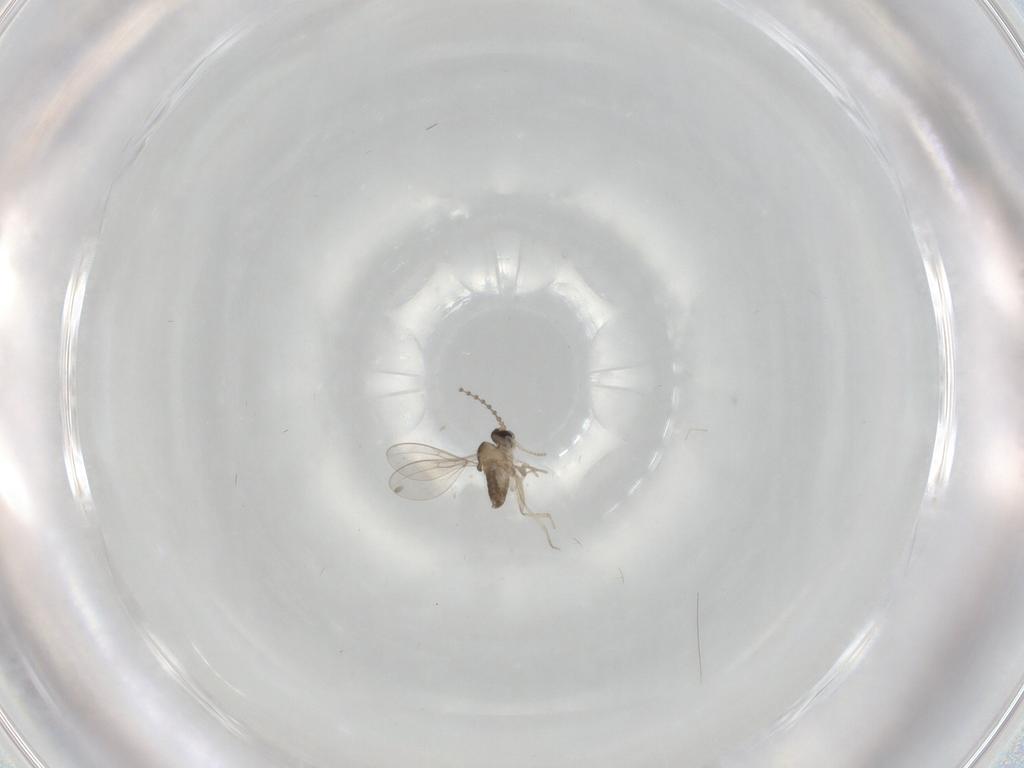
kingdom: Animalia
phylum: Arthropoda
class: Insecta
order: Diptera
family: Cecidomyiidae
